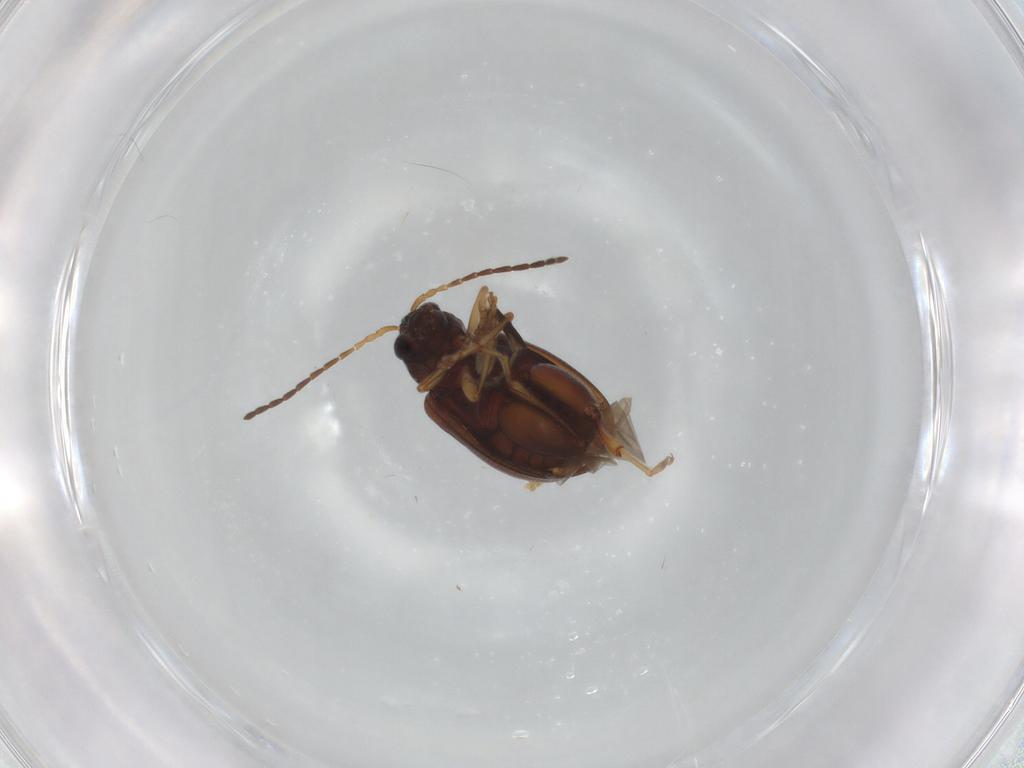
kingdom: Animalia
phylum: Arthropoda
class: Insecta
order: Coleoptera
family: Chrysomelidae
